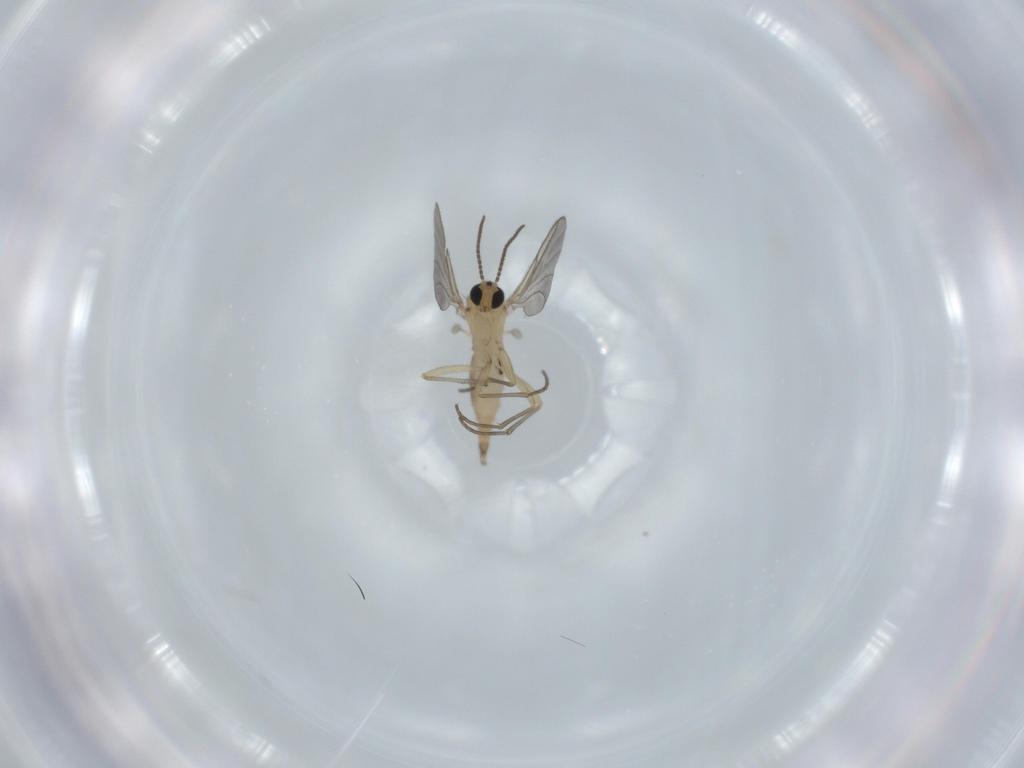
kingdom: Animalia
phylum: Arthropoda
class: Insecta
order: Diptera
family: Sciaridae
